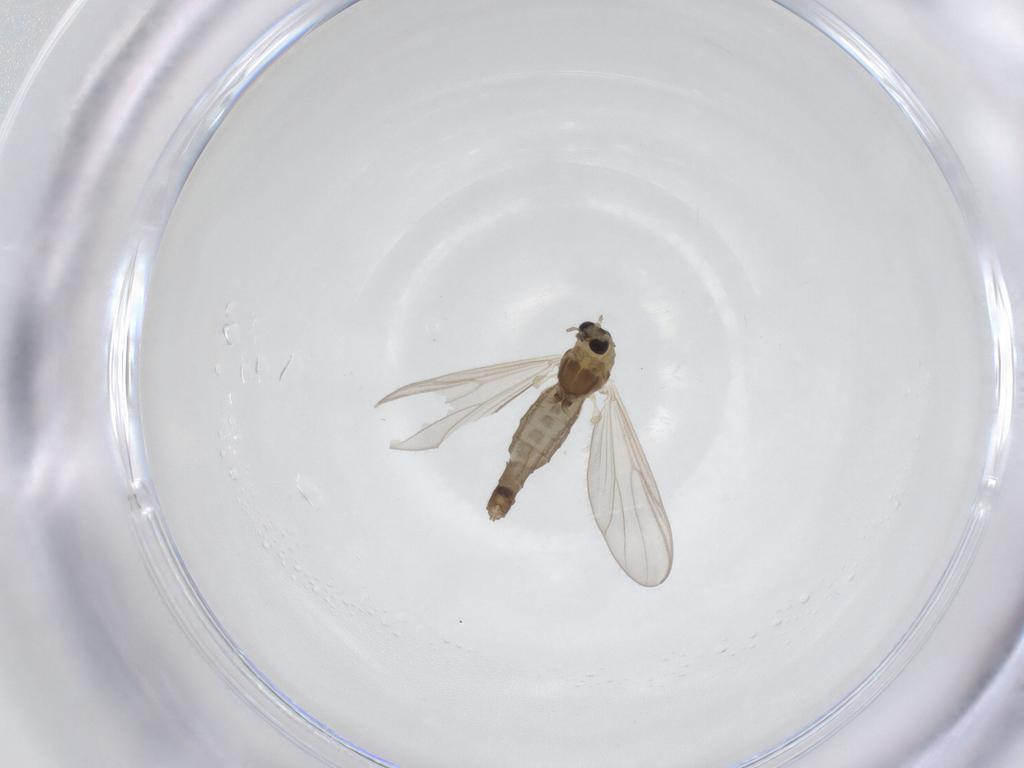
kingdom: Animalia
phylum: Arthropoda
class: Insecta
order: Diptera
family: Chironomidae
